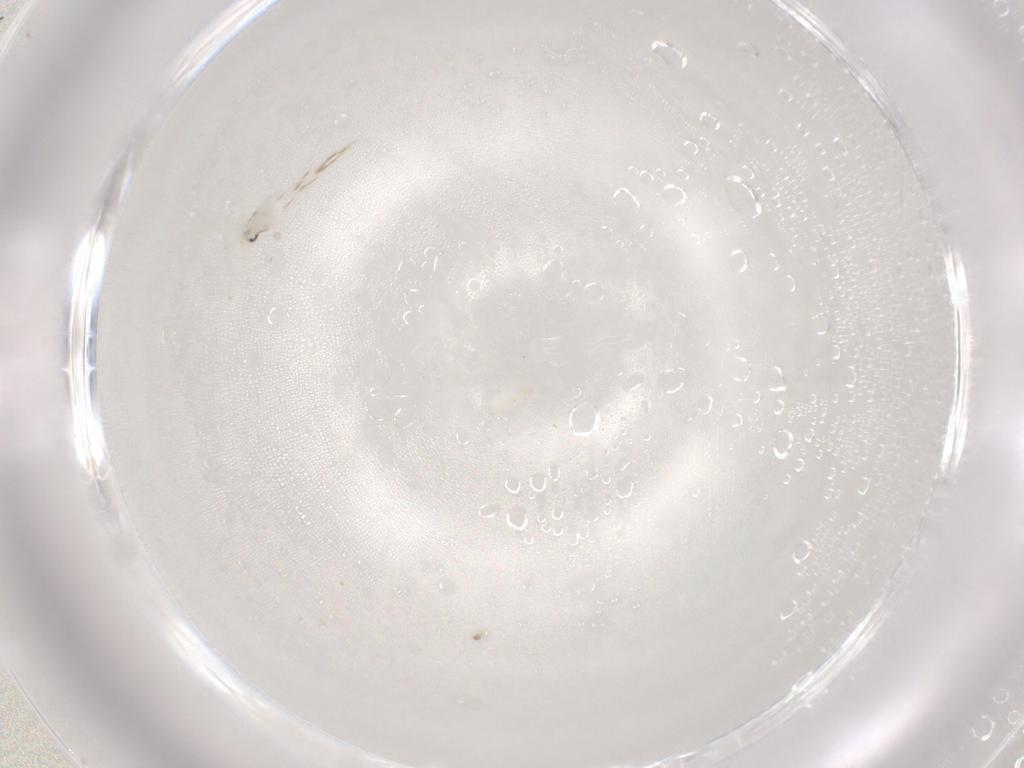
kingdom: Animalia
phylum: Arthropoda
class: Insecta
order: Diptera
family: Cecidomyiidae
